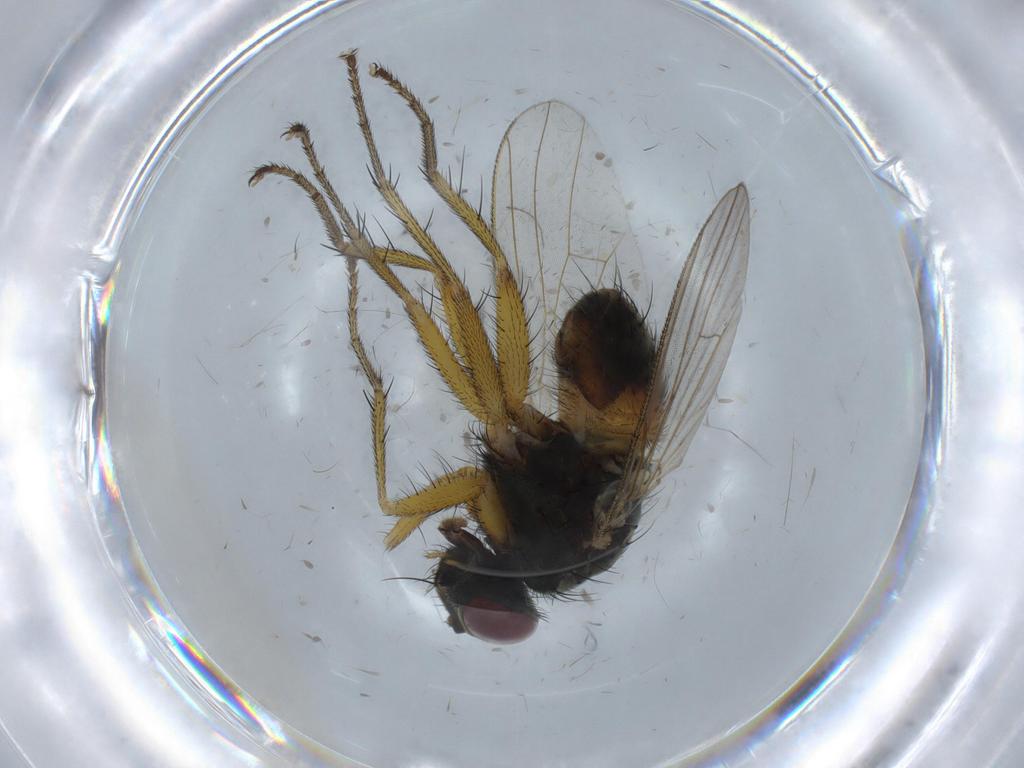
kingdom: Animalia
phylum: Arthropoda
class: Insecta
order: Diptera
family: Muscidae
